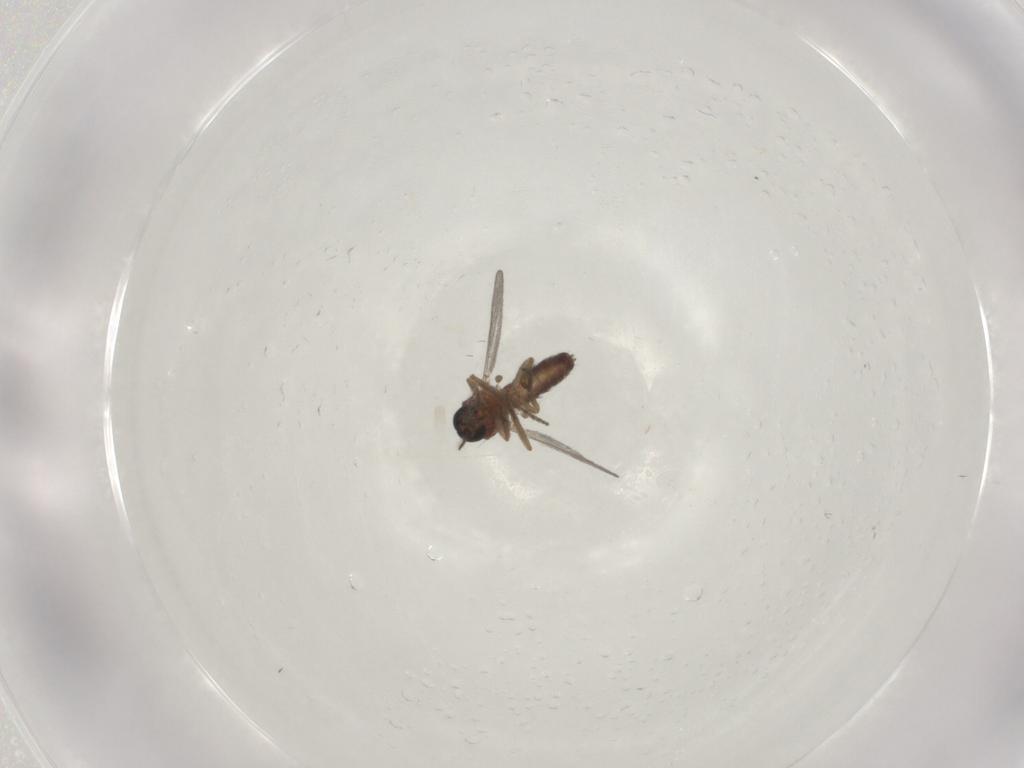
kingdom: Animalia
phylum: Arthropoda
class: Insecta
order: Diptera
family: Ceratopogonidae
